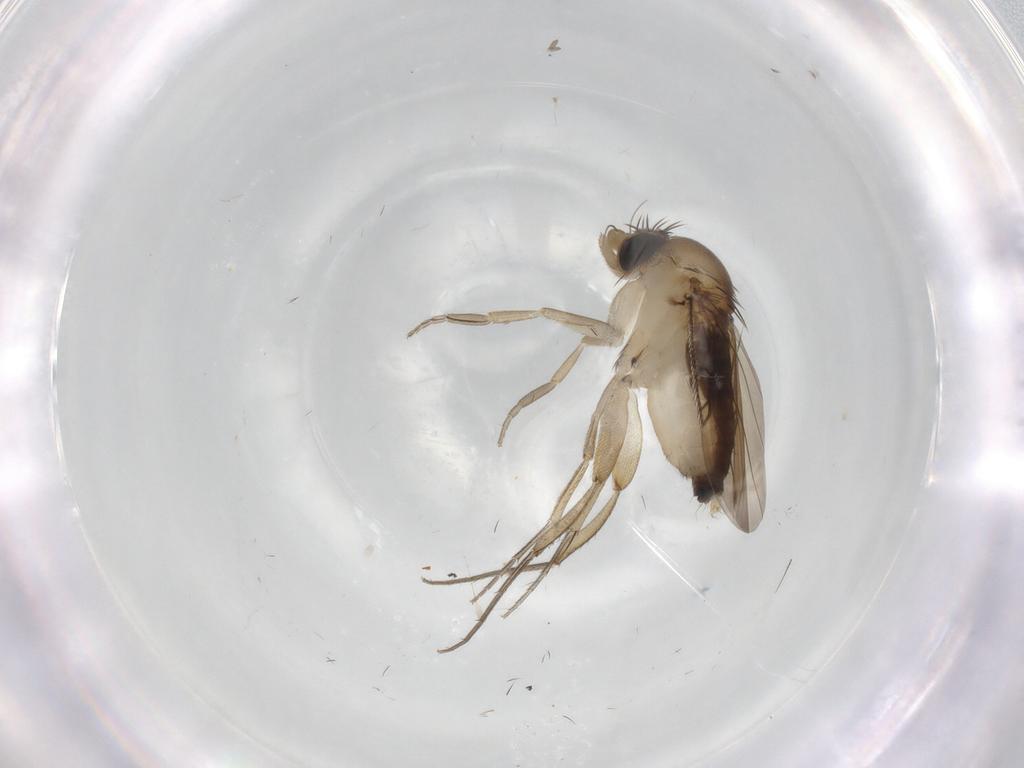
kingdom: Animalia
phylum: Arthropoda
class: Insecta
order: Diptera
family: Phoridae
